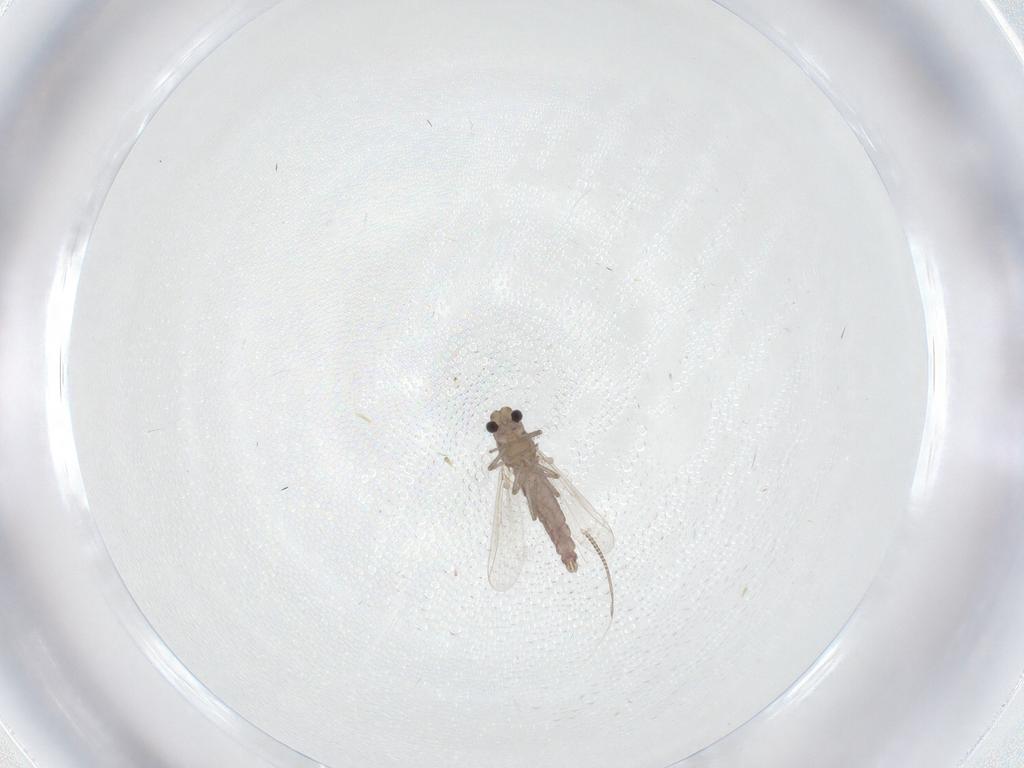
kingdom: Animalia
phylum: Arthropoda
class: Insecta
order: Diptera
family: Chironomidae
